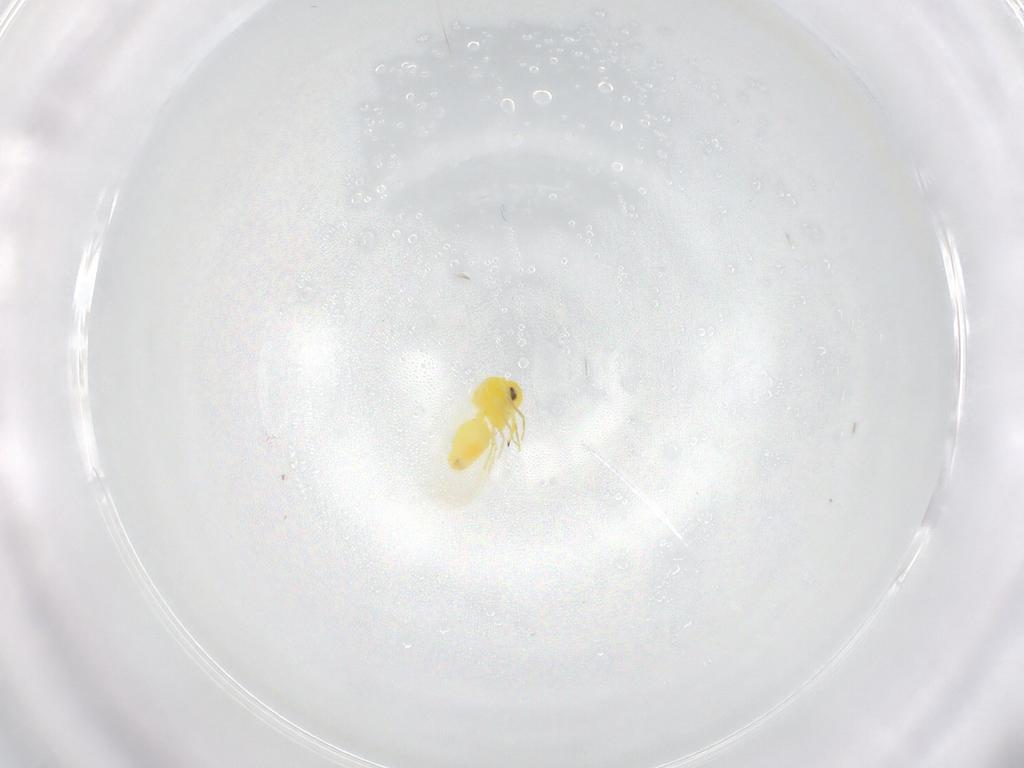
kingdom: Animalia
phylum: Arthropoda
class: Insecta
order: Hemiptera
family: Aleyrodidae
